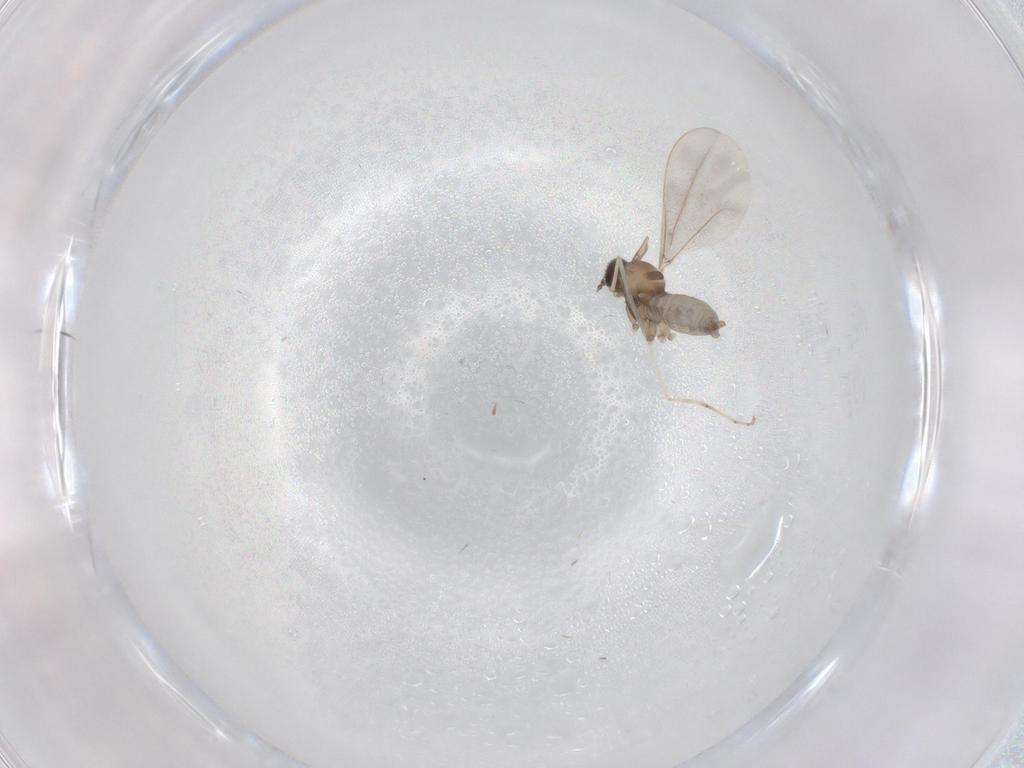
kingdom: Animalia
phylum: Arthropoda
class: Insecta
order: Diptera
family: Cecidomyiidae
